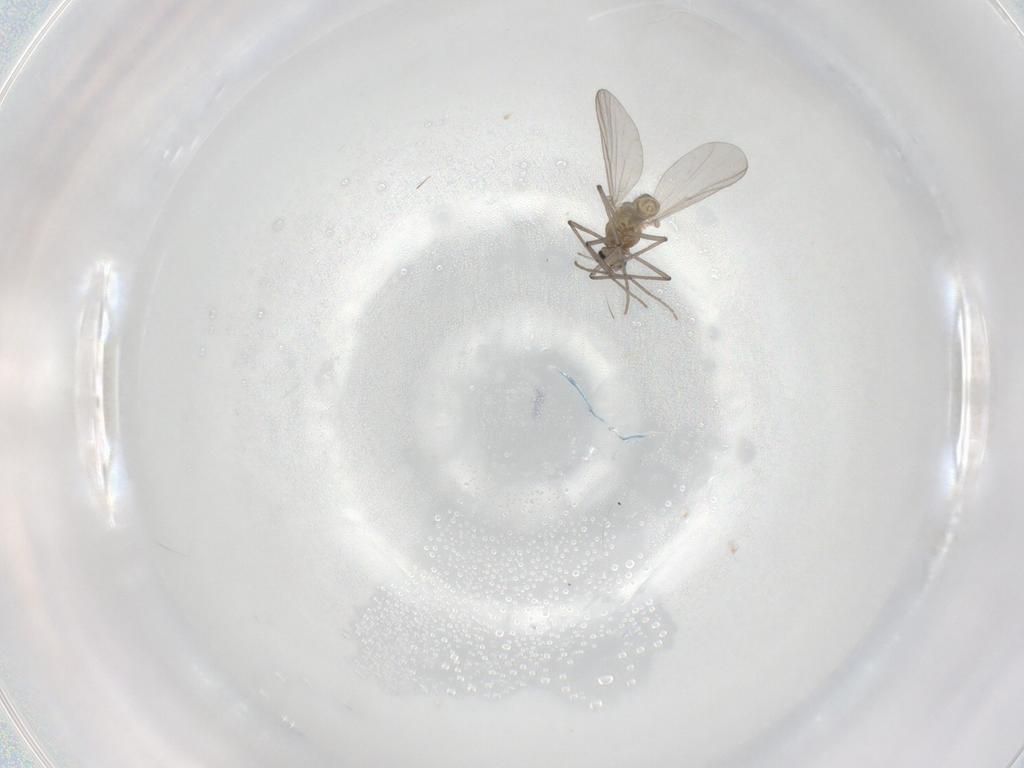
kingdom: Animalia
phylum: Arthropoda
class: Insecta
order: Diptera
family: Chironomidae
